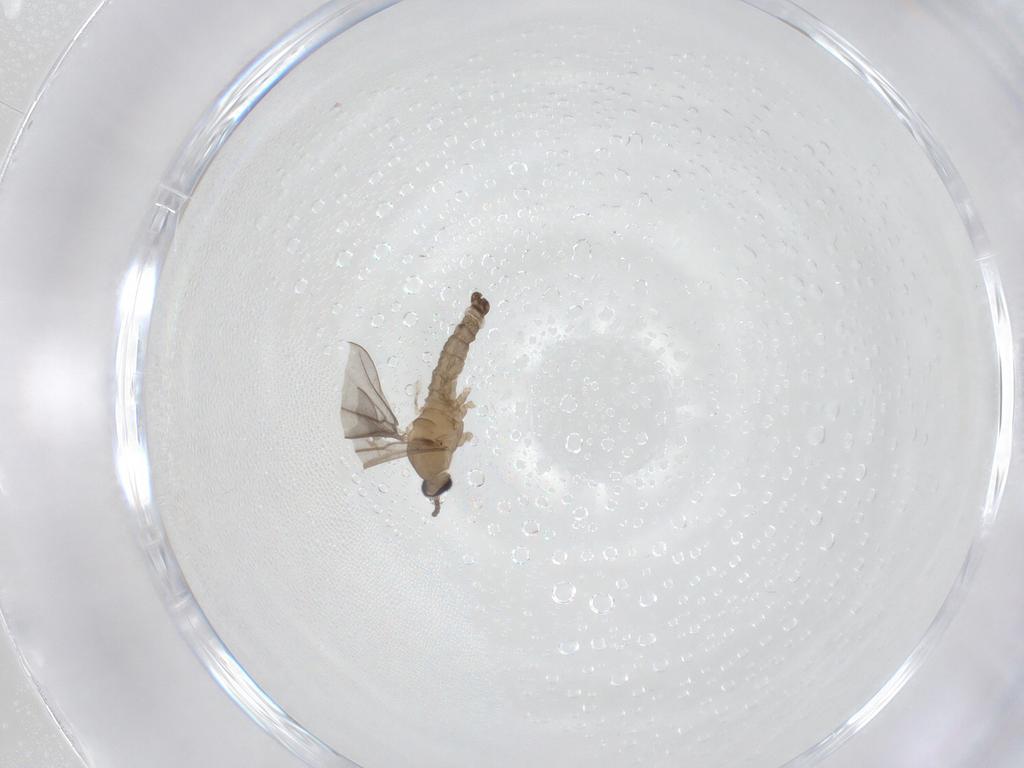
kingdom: Animalia
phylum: Arthropoda
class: Insecta
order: Diptera
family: Cecidomyiidae
